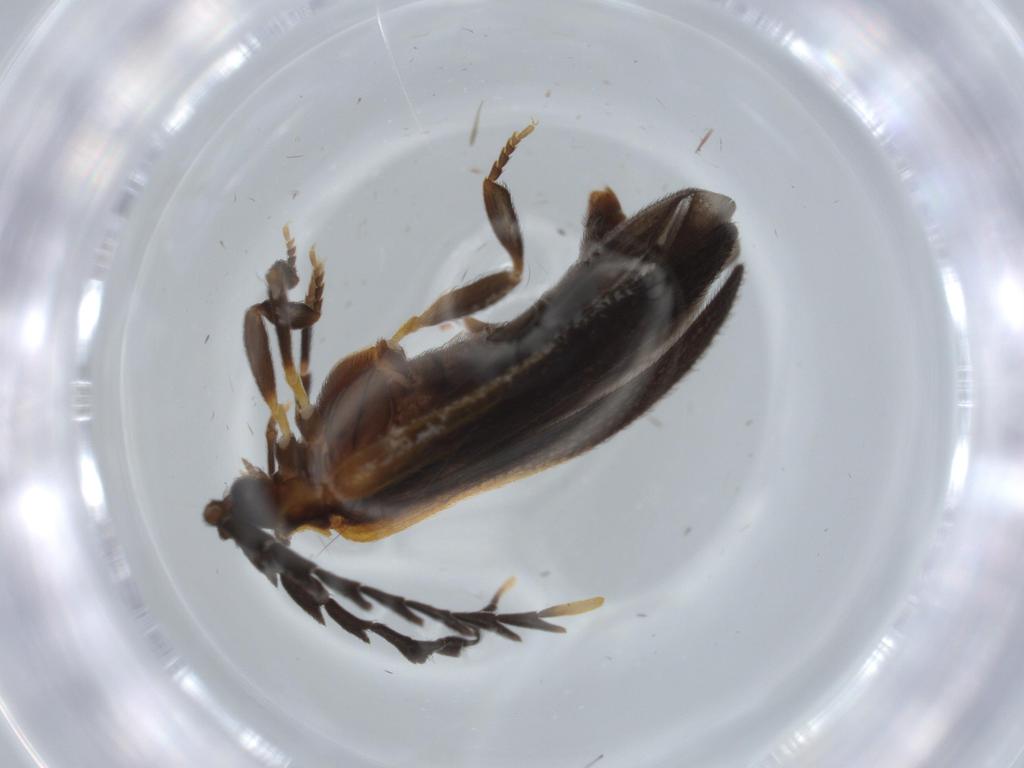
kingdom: Animalia
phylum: Arthropoda
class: Insecta
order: Coleoptera
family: Lycidae
